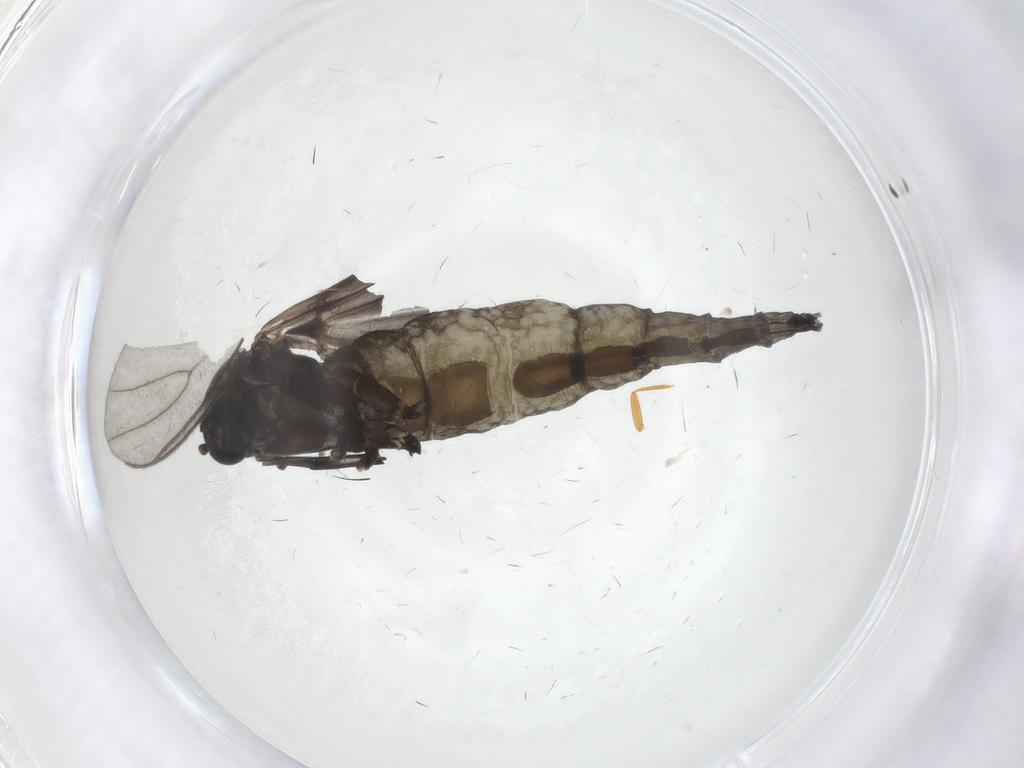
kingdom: Animalia
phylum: Arthropoda
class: Insecta
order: Diptera
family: Sciaridae
